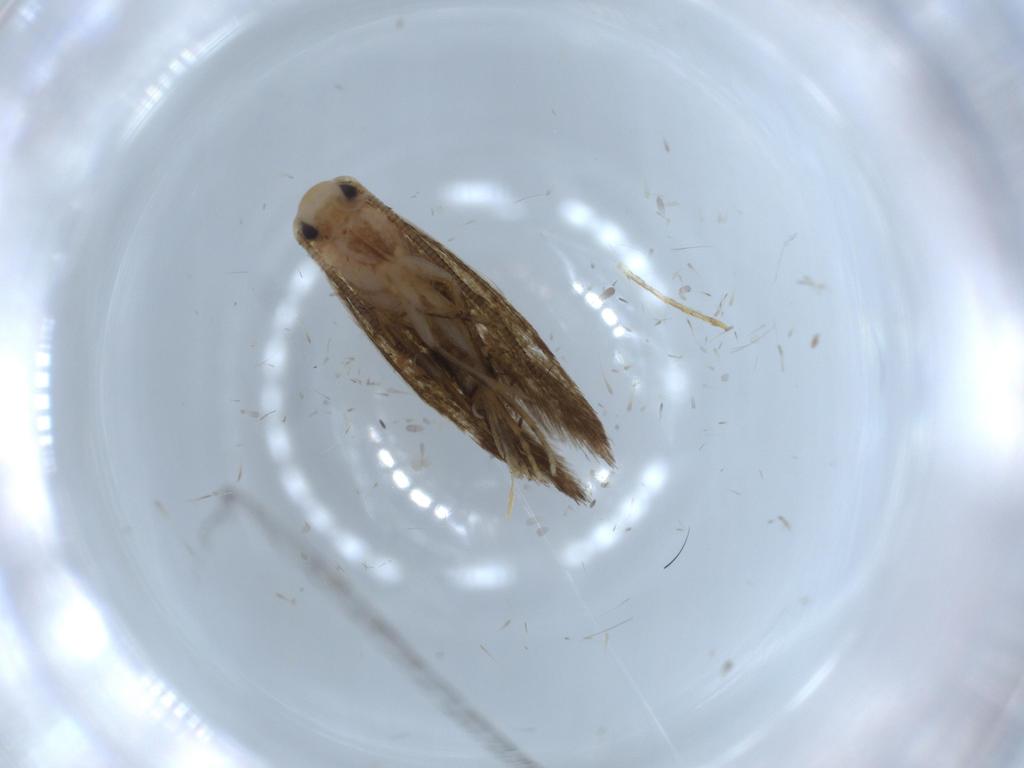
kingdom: Animalia
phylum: Arthropoda
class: Insecta
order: Lepidoptera
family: Tineidae
